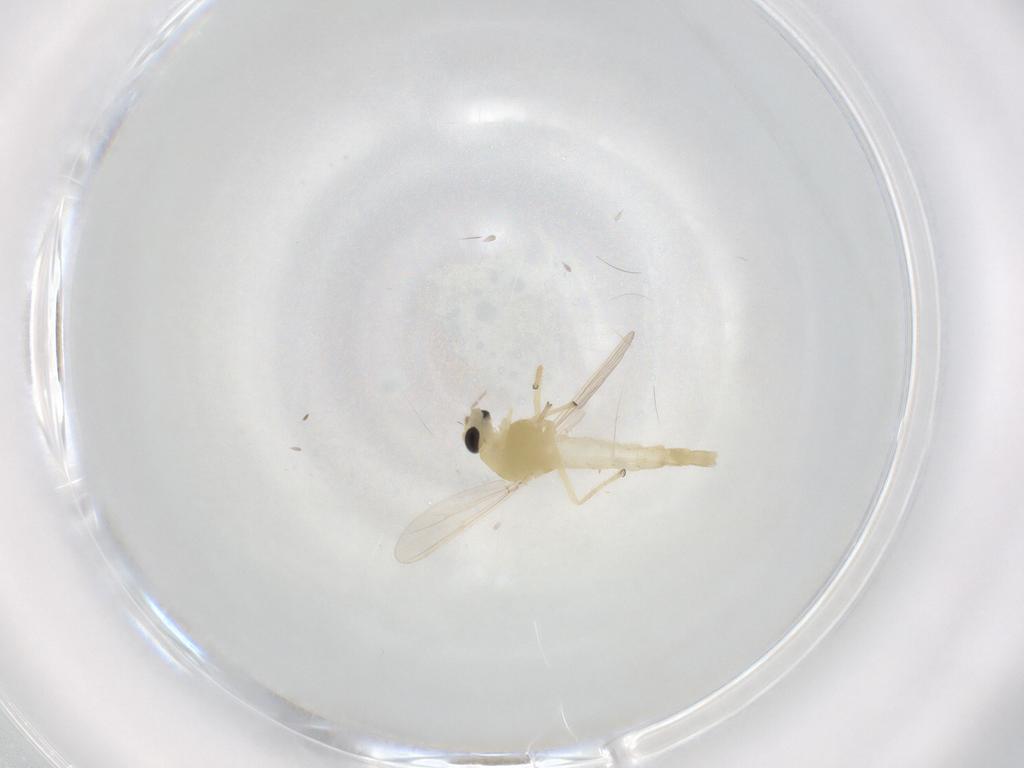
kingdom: Animalia
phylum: Arthropoda
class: Insecta
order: Diptera
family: Chironomidae
